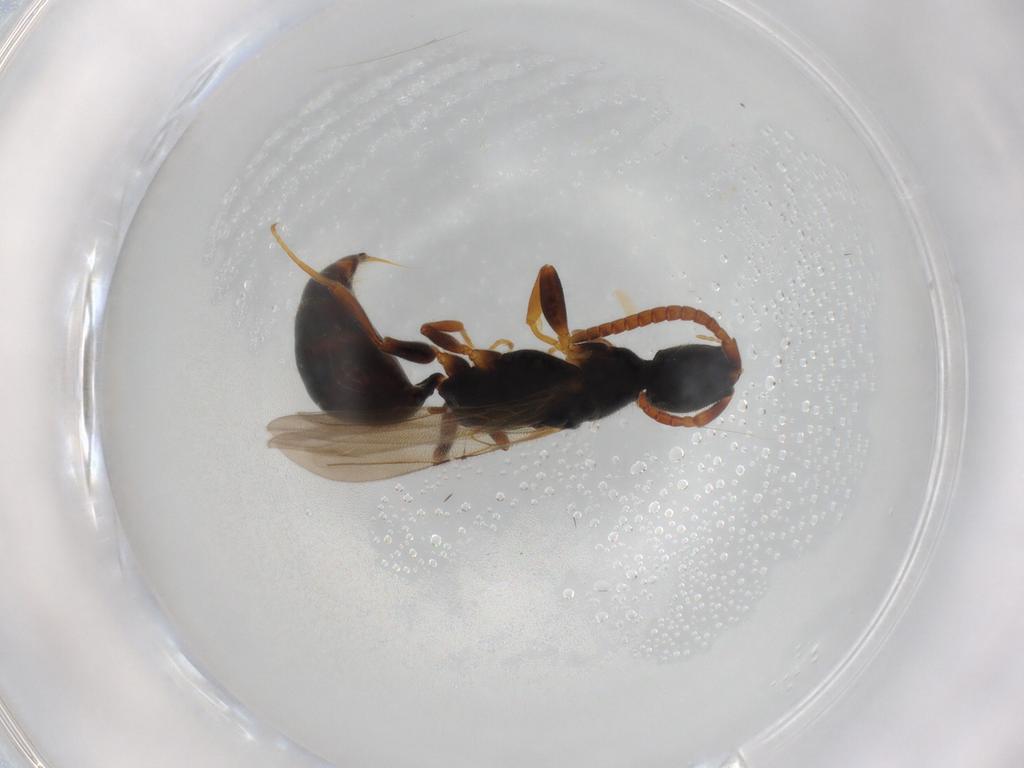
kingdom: Animalia
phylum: Arthropoda
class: Insecta
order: Hymenoptera
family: Bethylidae
